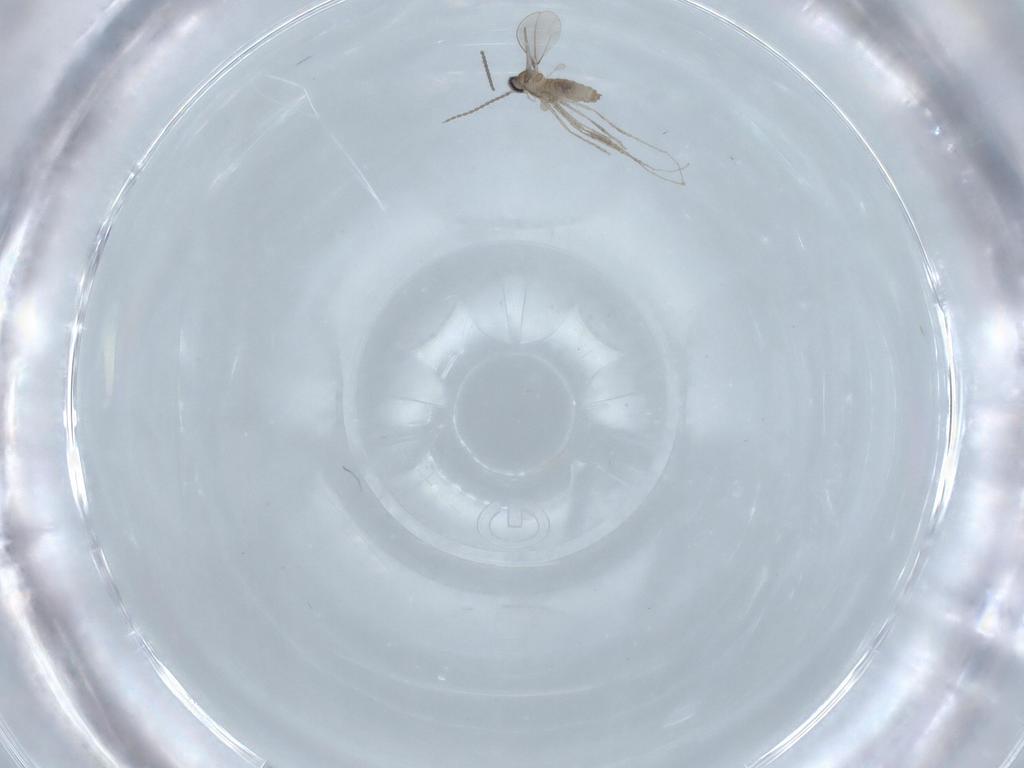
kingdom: Animalia
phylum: Arthropoda
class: Insecta
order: Diptera
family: Cecidomyiidae
